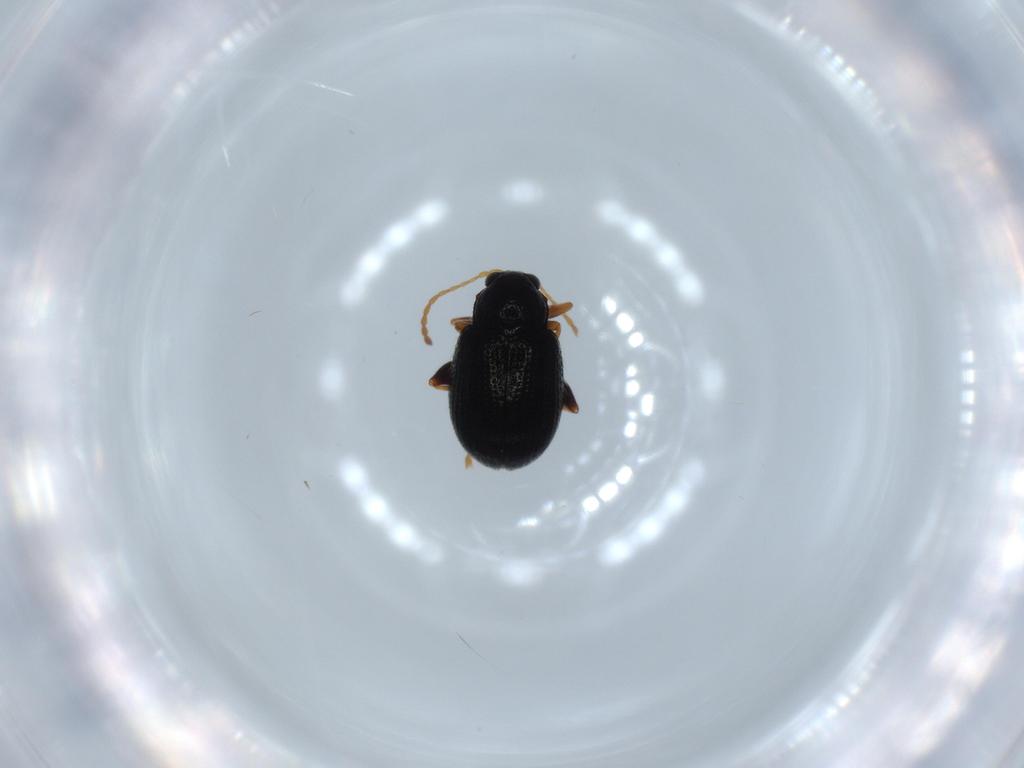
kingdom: Animalia
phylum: Arthropoda
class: Insecta
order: Coleoptera
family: Chrysomelidae
